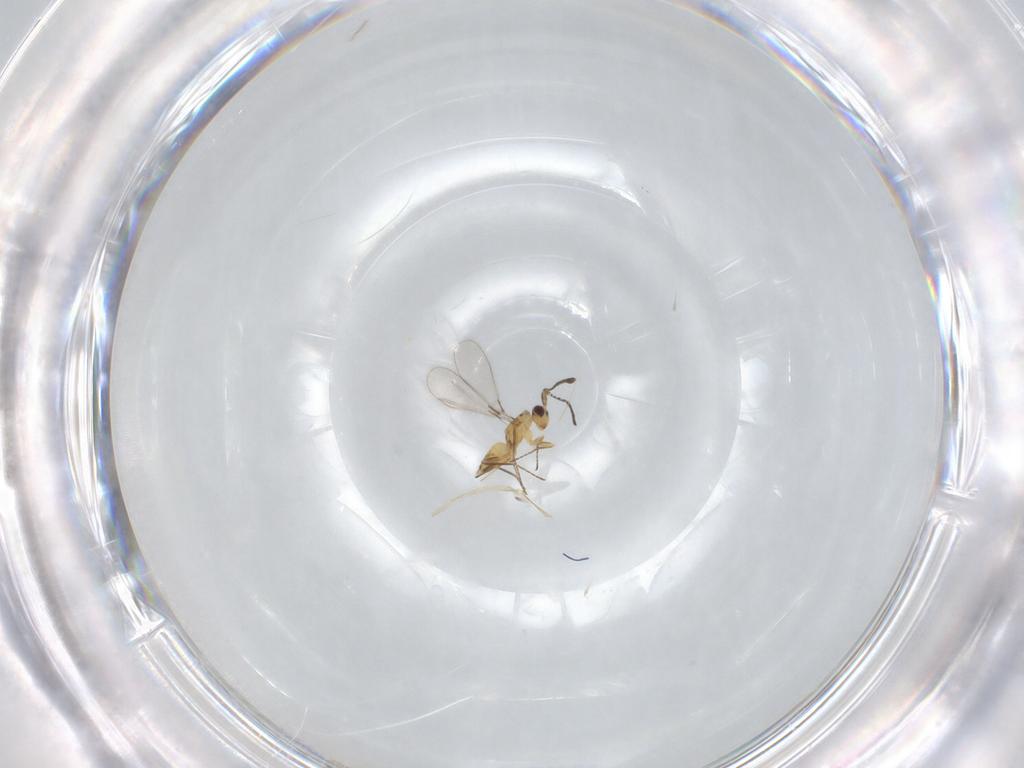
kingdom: Animalia
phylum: Arthropoda
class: Insecta
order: Hymenoptera
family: Mymaridae
